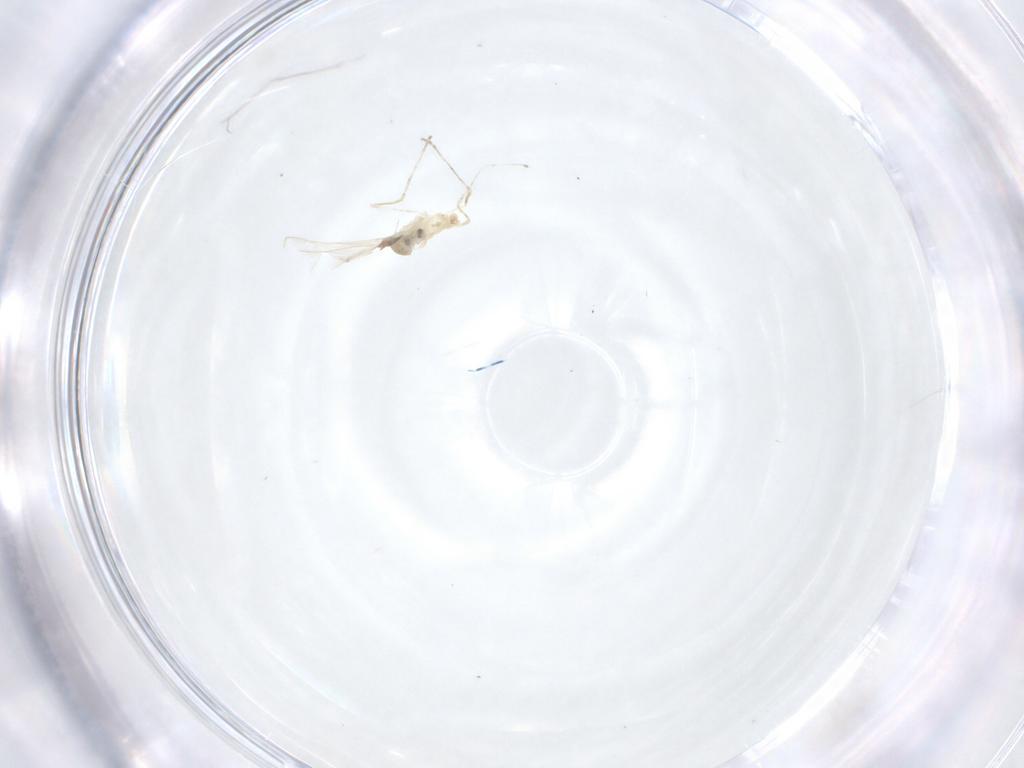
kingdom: Animalia
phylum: Arthropoda
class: Insecta
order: Diptera
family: Cecidomyiidae
